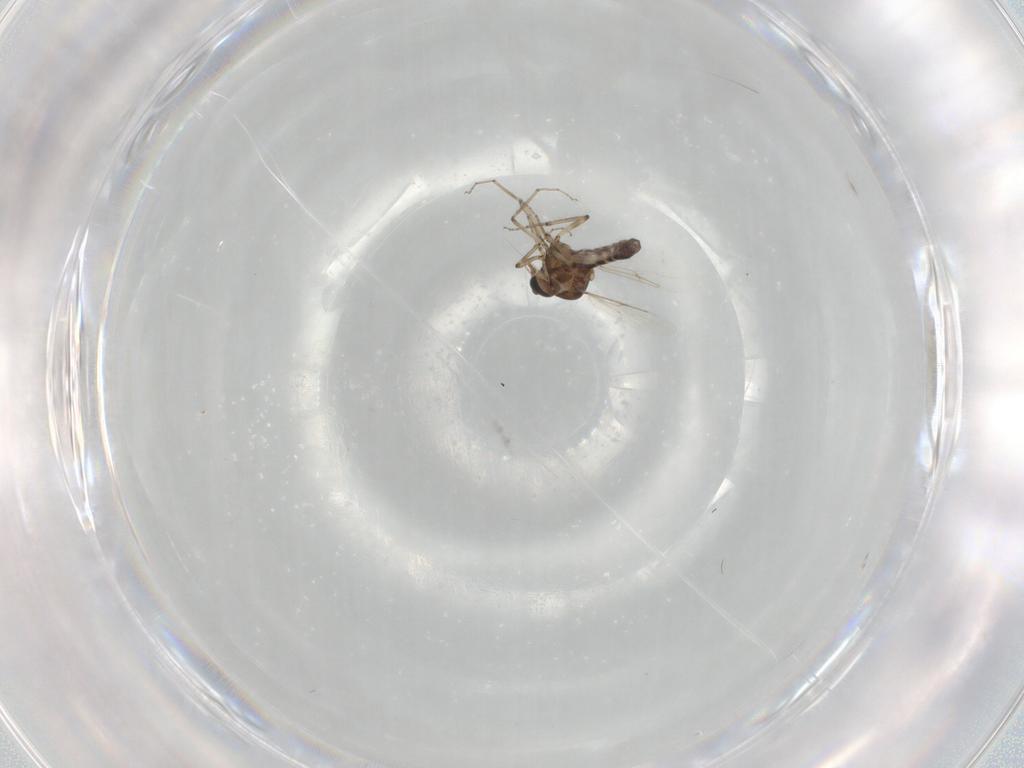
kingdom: Animalia
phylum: Arthropoda
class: Insecta
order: Diptera
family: Ceratopogonidae
